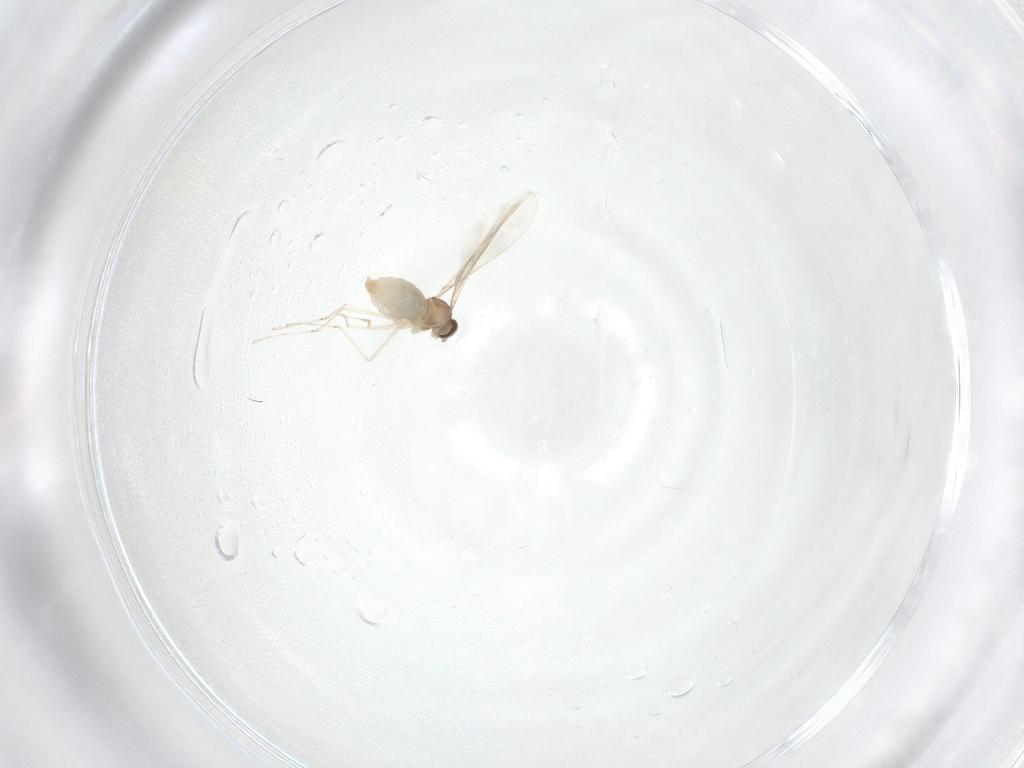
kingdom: Animalia
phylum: Arthropoda
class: Insecta
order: Diptera
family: Cecidomyiidae
